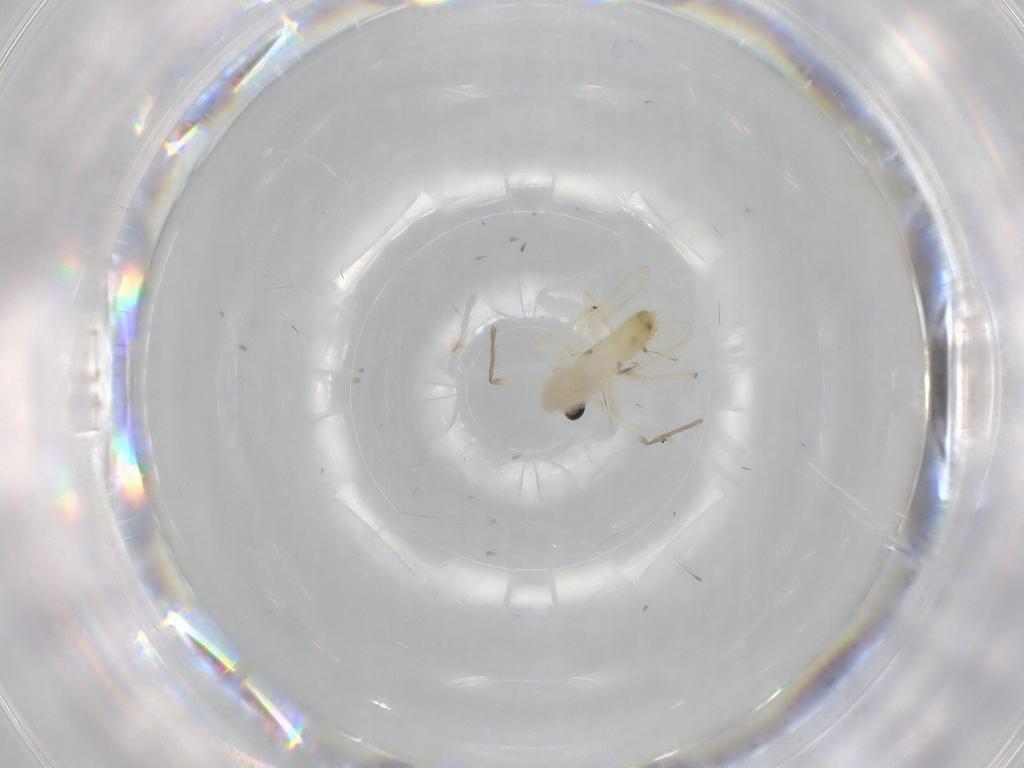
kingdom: Animalia
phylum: Arthropoda
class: Insecta
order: Diptera
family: Chironomidae
